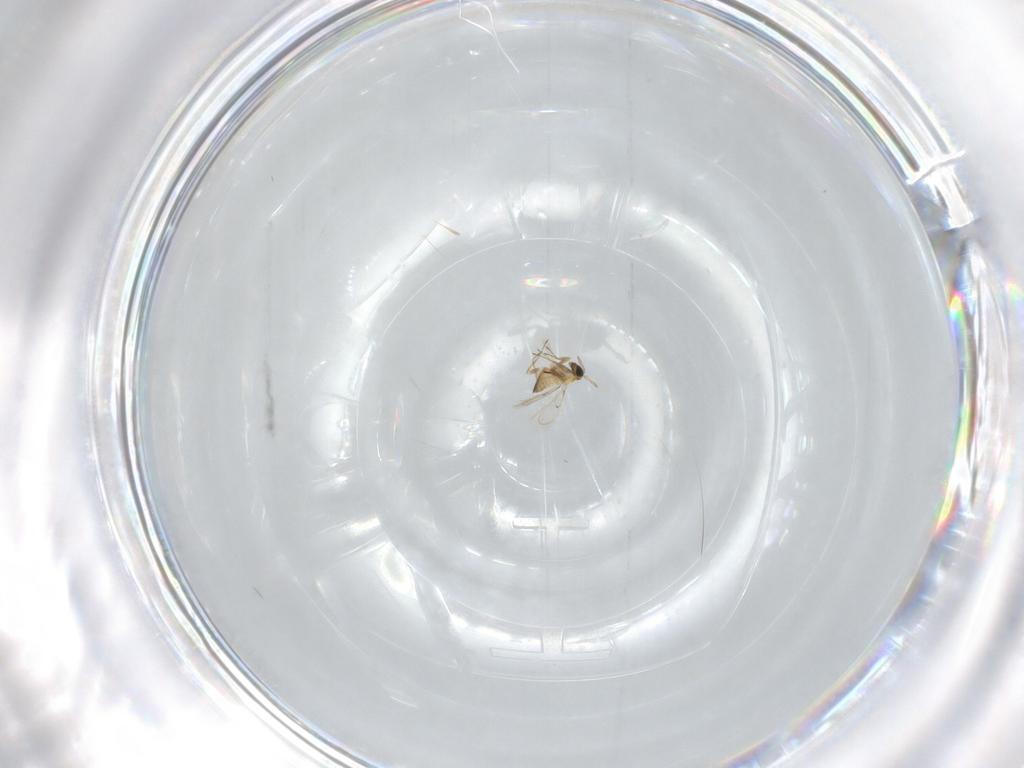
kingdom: Animalia
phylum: Arthropoda
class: Insecta
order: Hymenoptera
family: Trichogrammatidae
